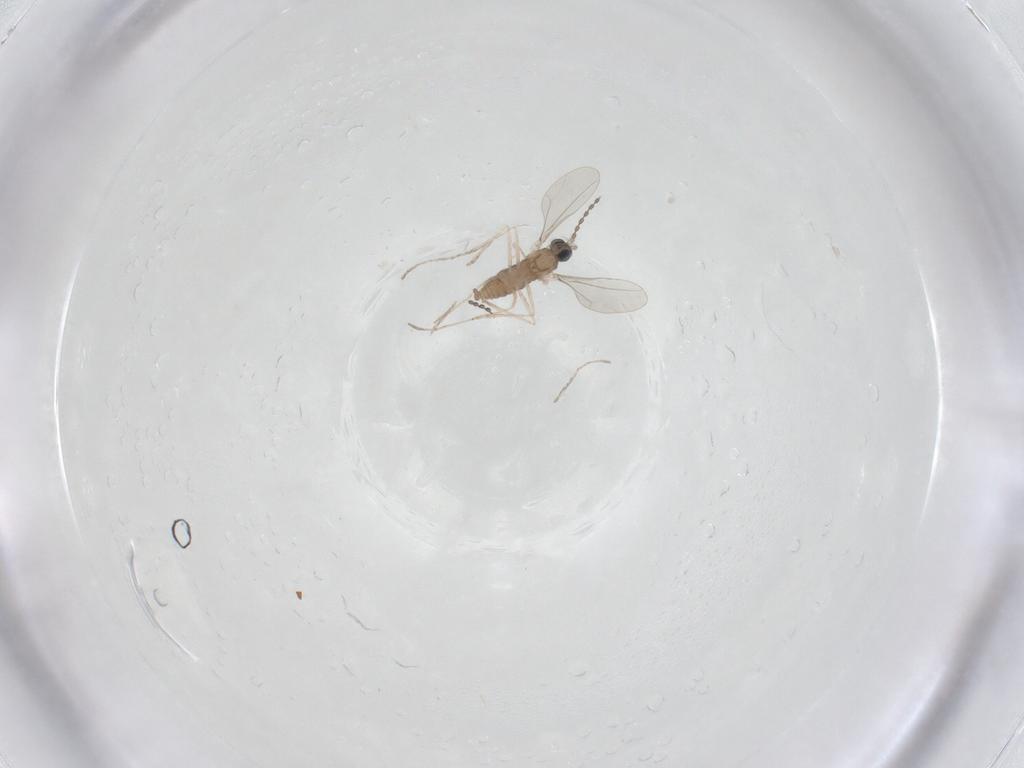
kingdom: Animalia
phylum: Arthropoda
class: Insecta
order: Diptera
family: Cecidomyiidae
